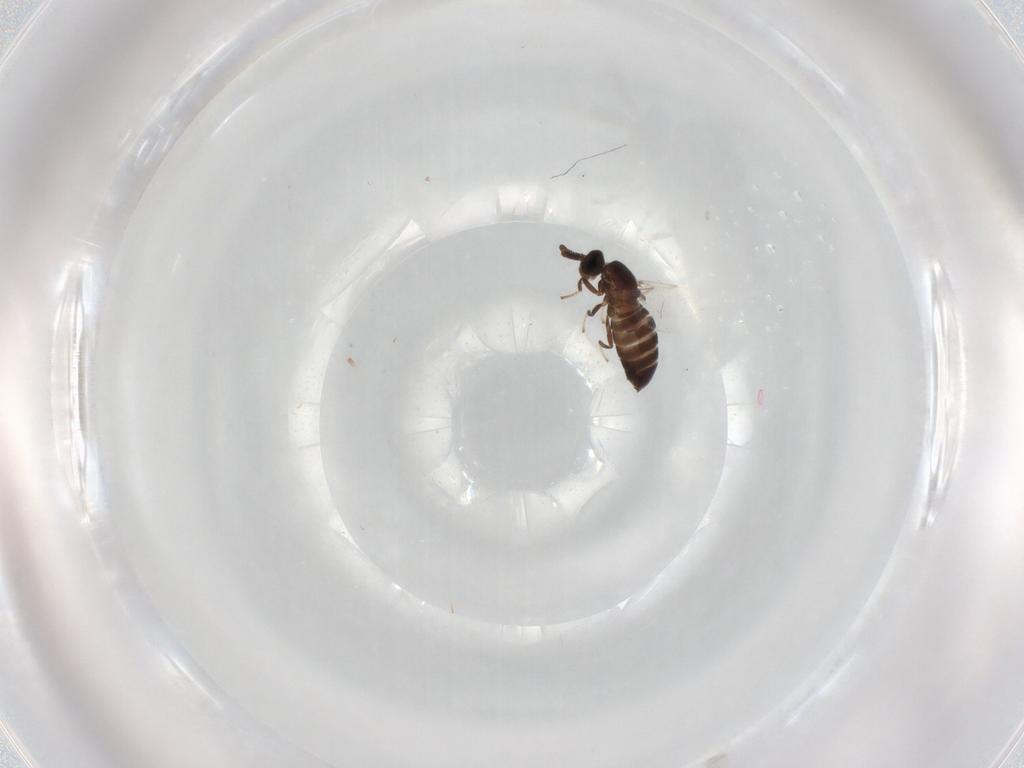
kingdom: Animalia
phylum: Arthropoda
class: Insecta
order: Diptera
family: Scatopsidae
